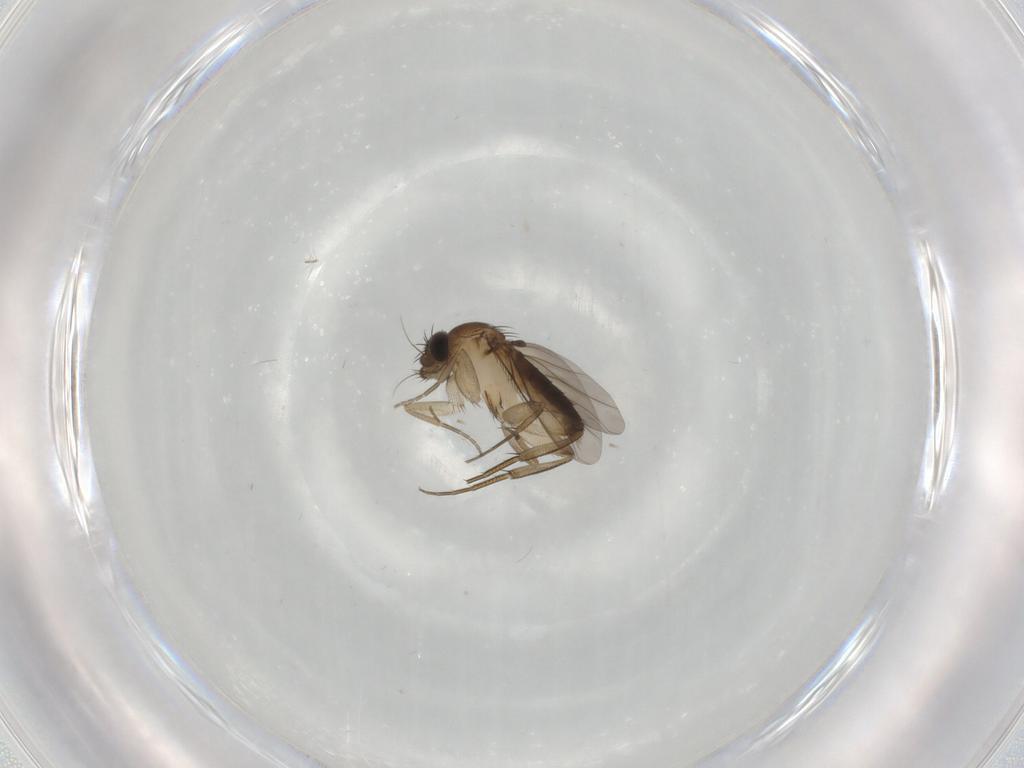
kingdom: Animalia
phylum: Arthropoda
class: Insecta
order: Diptera
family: Phoridae
